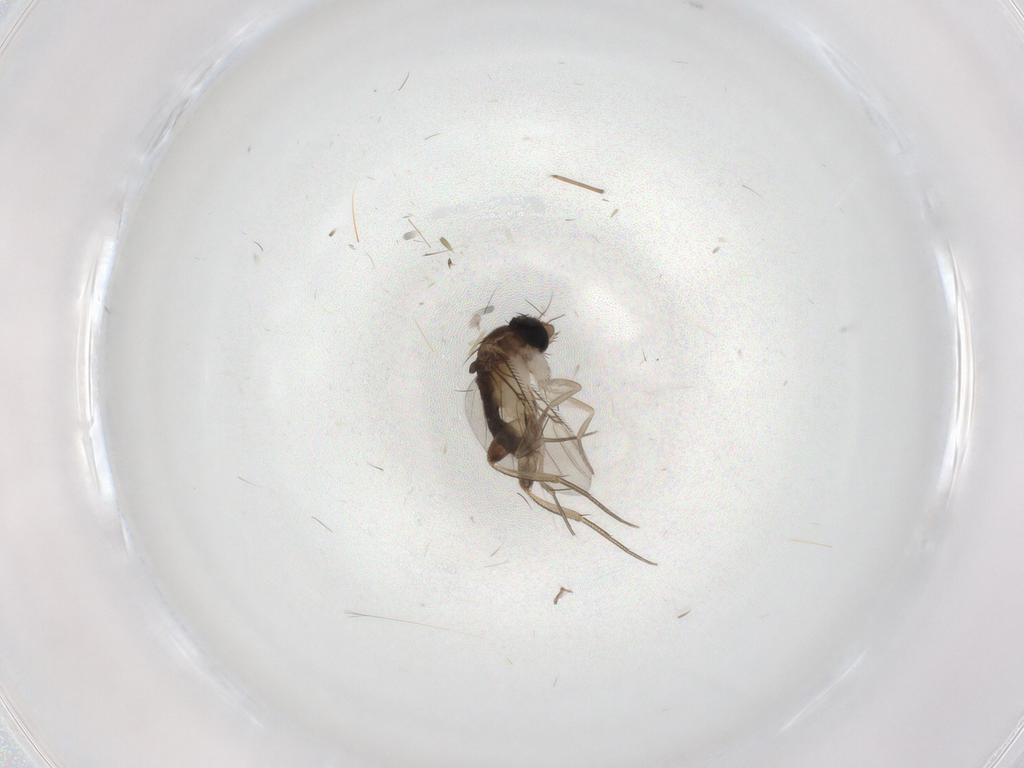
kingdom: Animalia
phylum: Arthropoda
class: Insecta
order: Diptera
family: Phoridae
